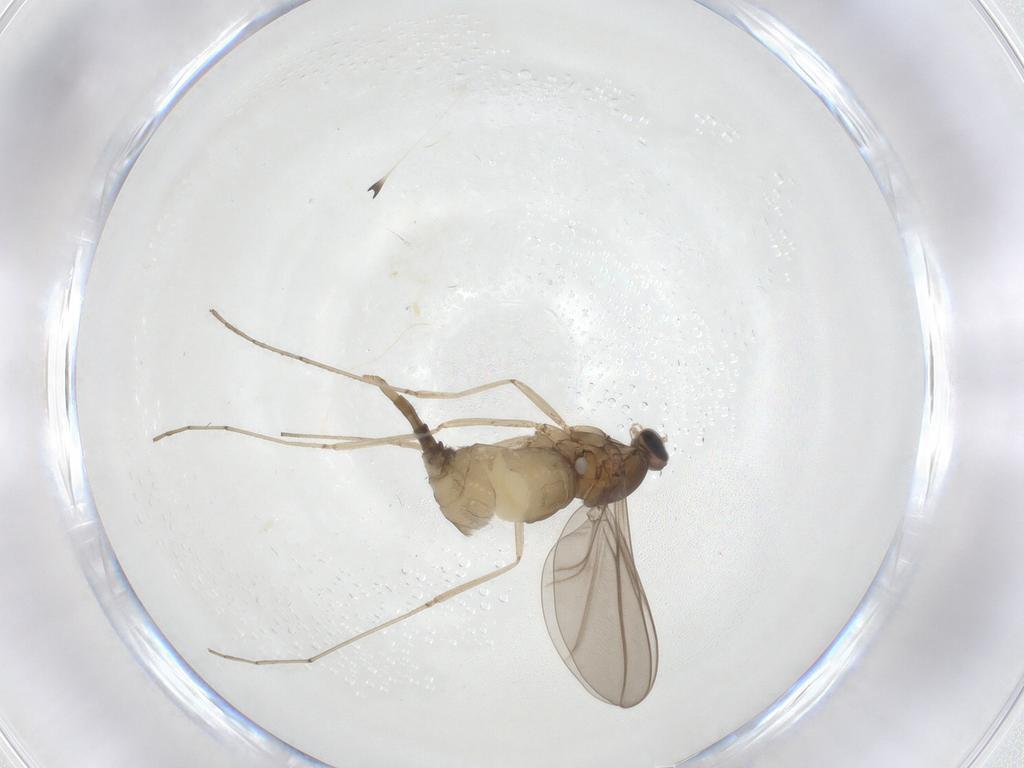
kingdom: Animalia
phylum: Arthropoda
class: Insecta
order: Diptera
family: Cecidomyiidae
